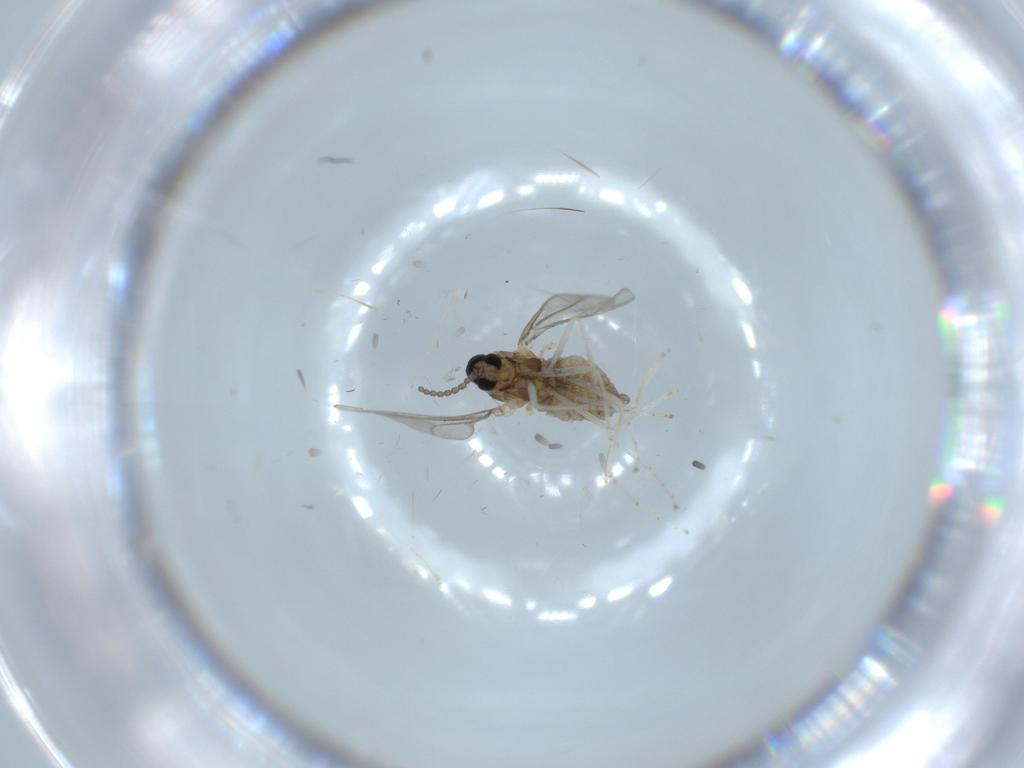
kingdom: Animalia
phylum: Arthropoda
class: Insecta
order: Diptera
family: Cecidomyiidae
